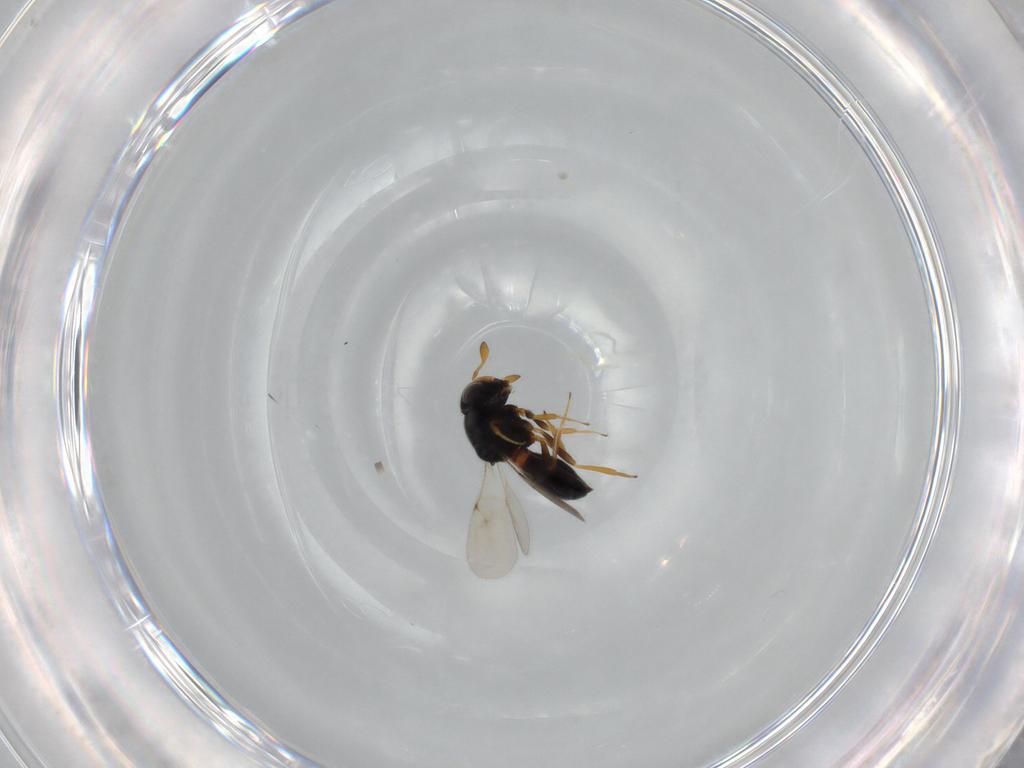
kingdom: Animalia
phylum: Arthropoda
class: Insecta
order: Hymenoptera
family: Scelionidae
